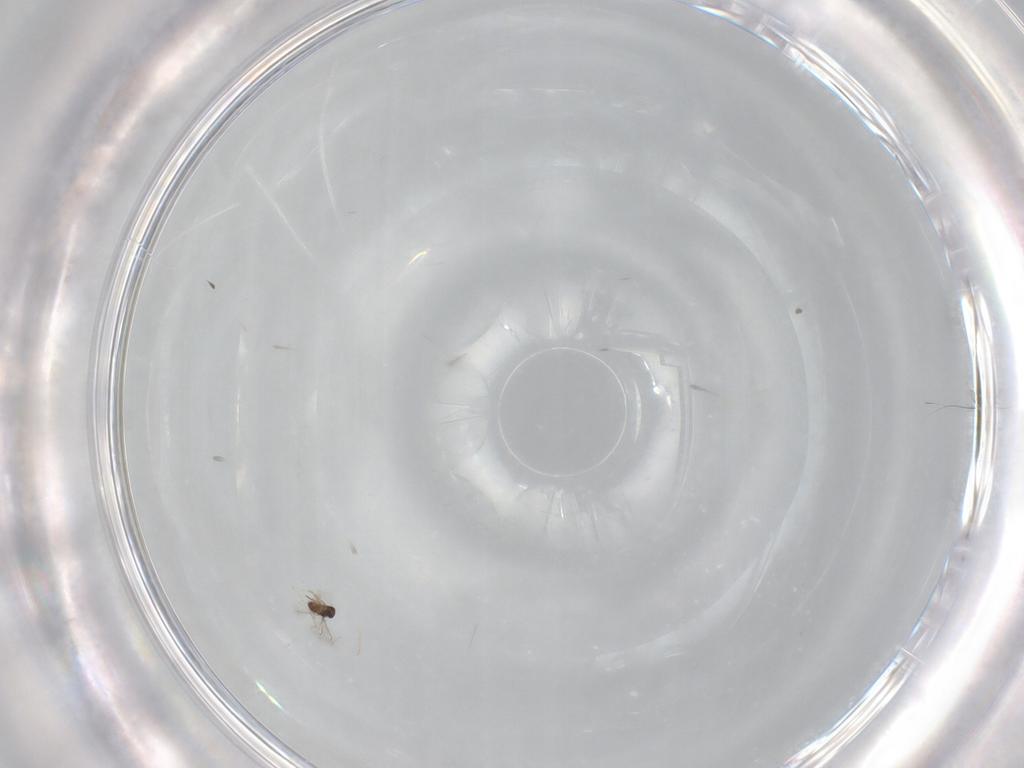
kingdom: Animalia
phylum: Arthropoda
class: Insecta
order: Hymenoptera
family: Mymaridae
